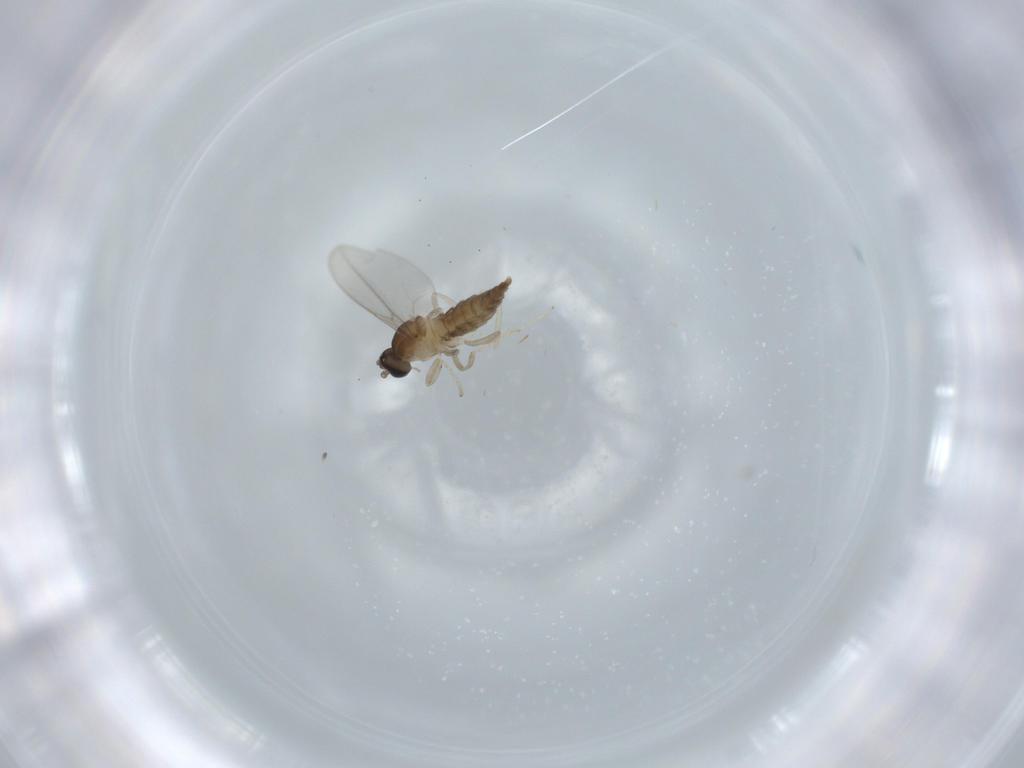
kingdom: Animalia
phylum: Arthropoda
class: Insecta
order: Diptera
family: Cecidomyiidae
